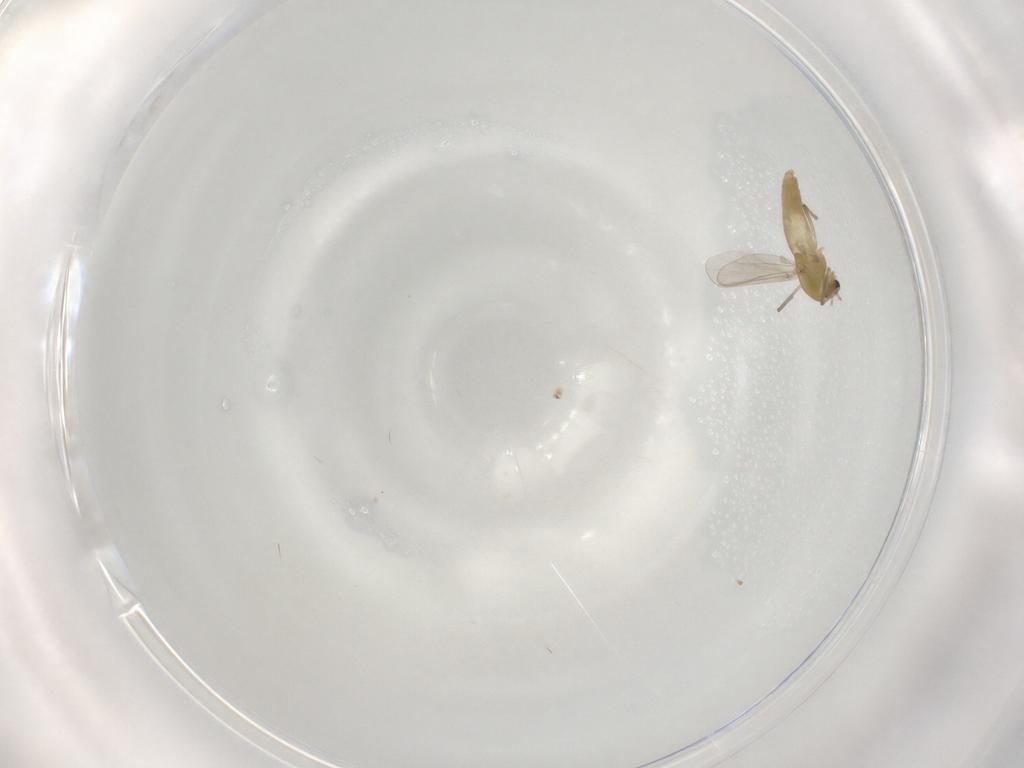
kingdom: Animalia
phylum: Arthropoda
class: Insecta
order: Diptera
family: Chironomidae
